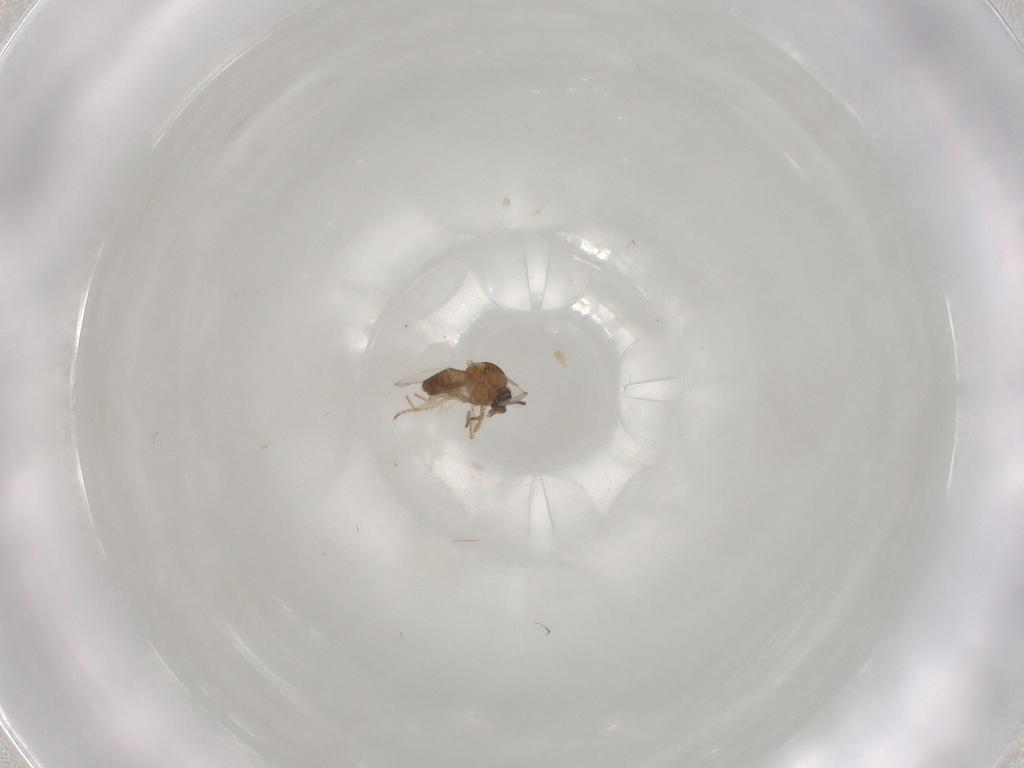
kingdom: Animalia
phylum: Arthropoda
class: Insecta
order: Diptera
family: Ceratopogonidae
